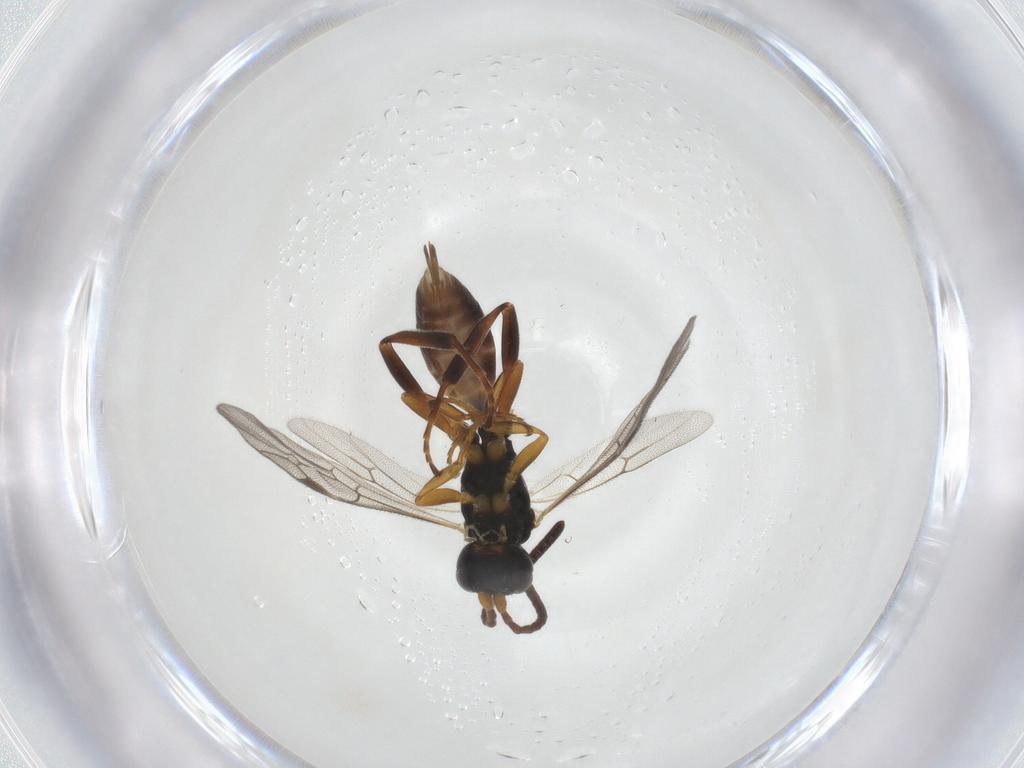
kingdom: Animalia
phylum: Arthropoda
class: Insecta
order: Hymenoptera
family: Ichneumonidae
